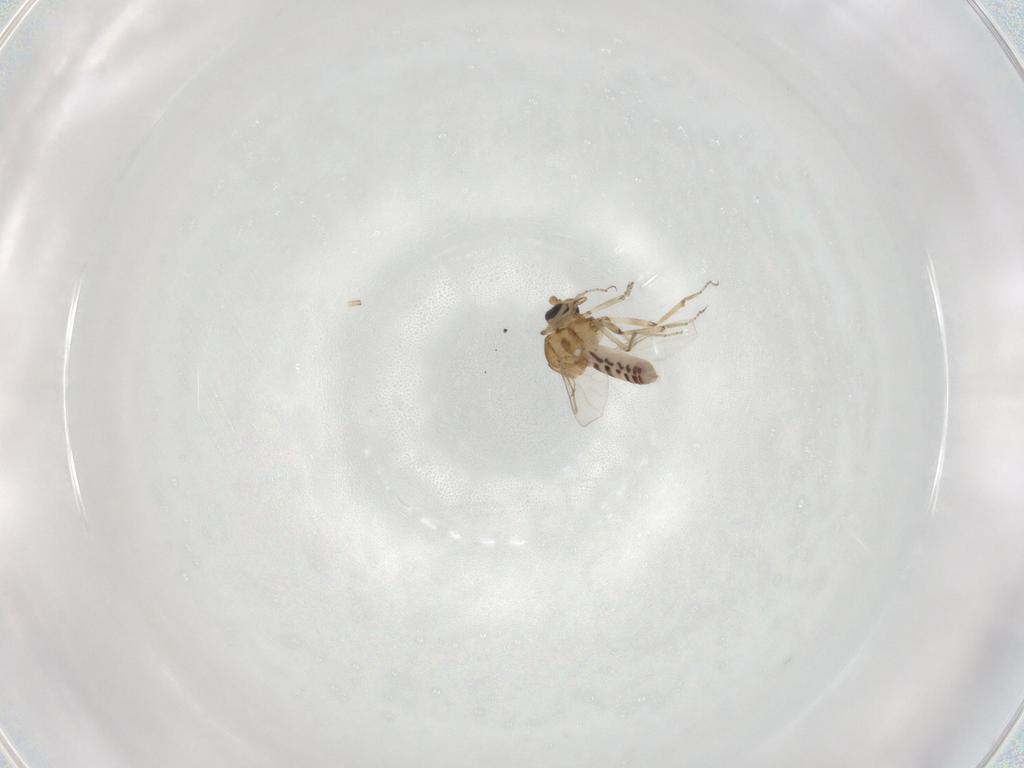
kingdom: Animalia
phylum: Arthropoda
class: Insecta
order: Diptera
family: Ceratopogonidae
